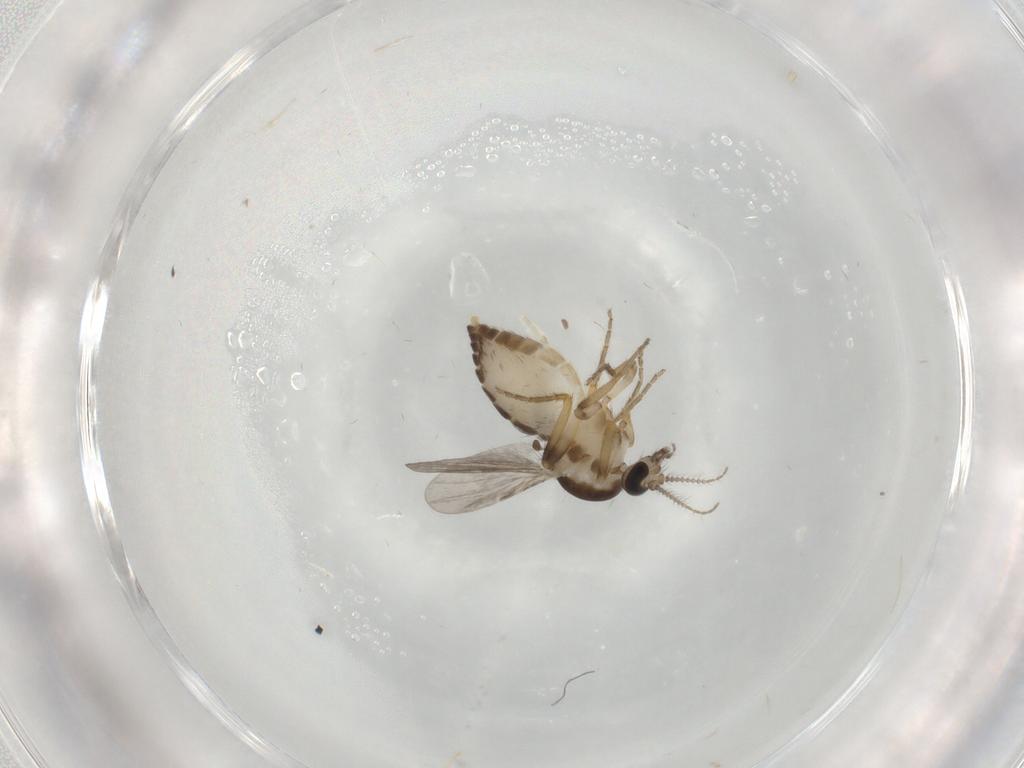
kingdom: Animalia
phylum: Arthropoda
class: Insecta
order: Diptera
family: Ceratopogonidae
